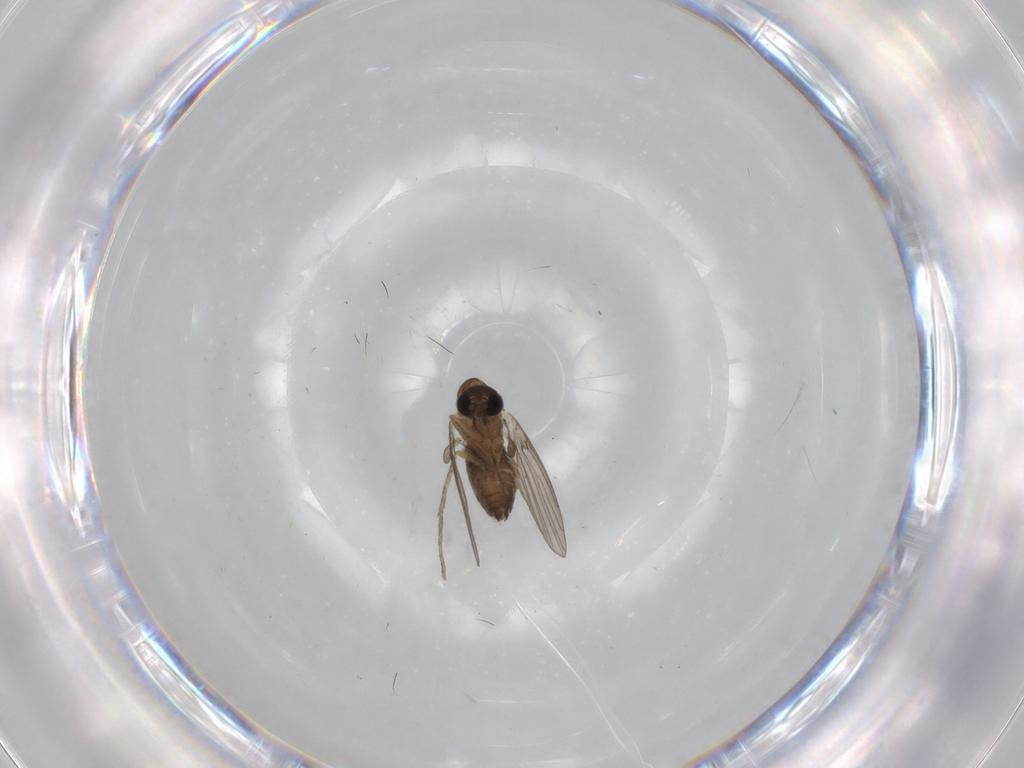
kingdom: Animalia
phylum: Arthropoda
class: Insecta
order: Diptera
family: Psychodidae
